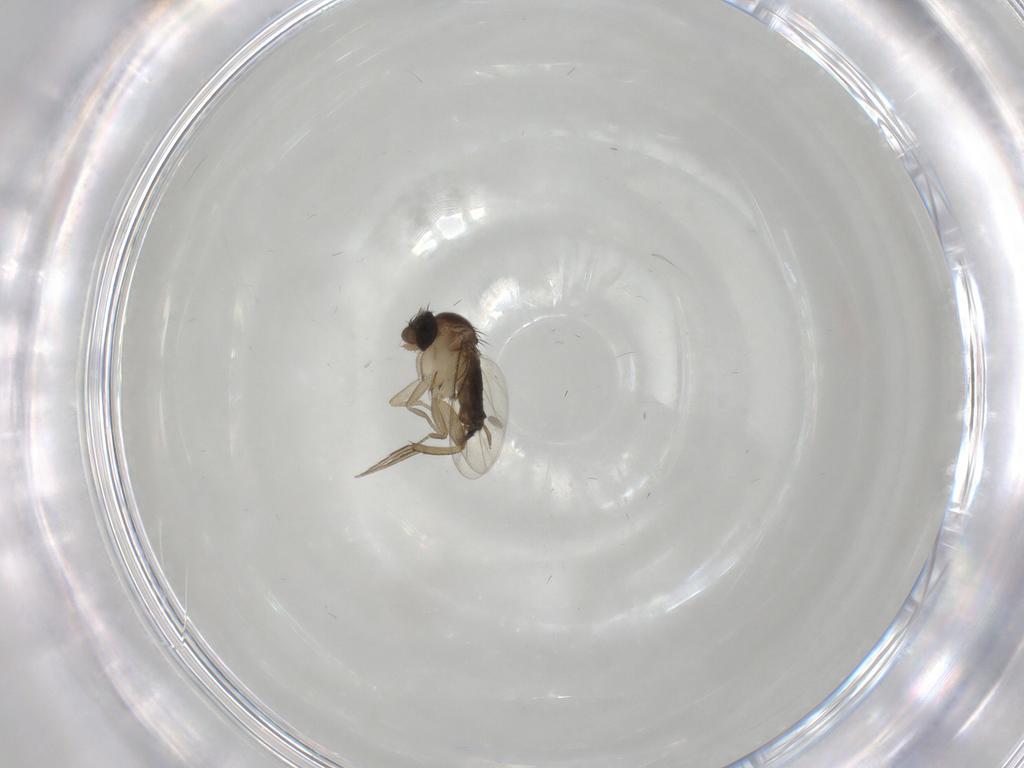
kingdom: Animalia
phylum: Arthropoda
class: Insecta
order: Diptera
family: Phoridae
